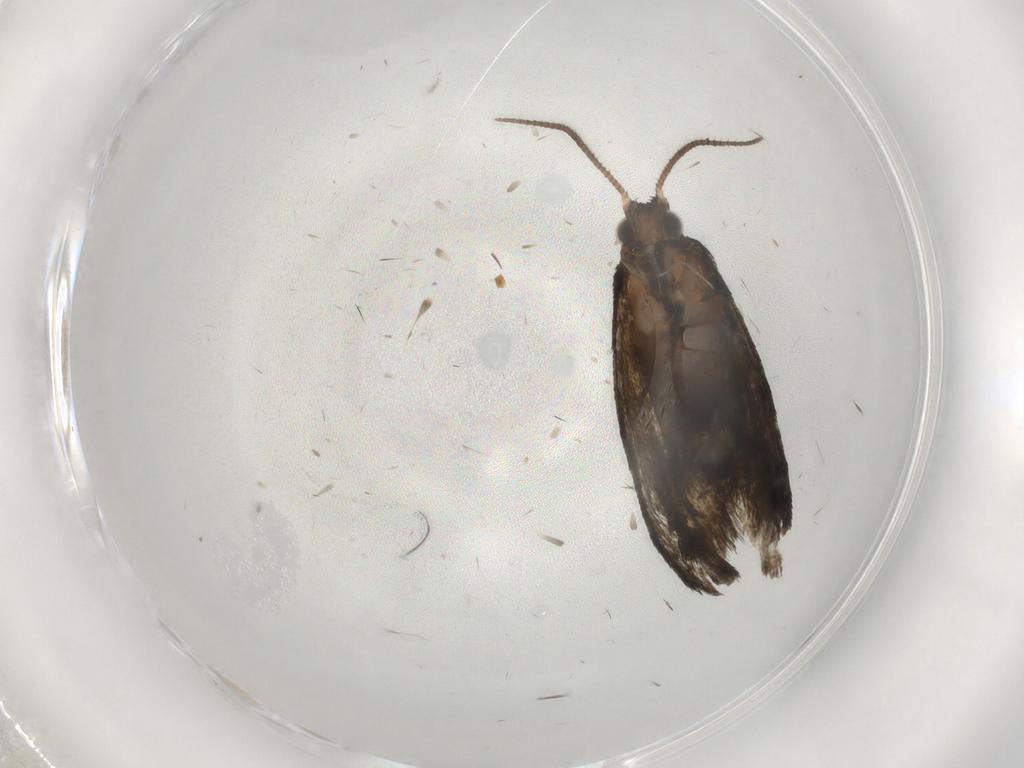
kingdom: Animalia
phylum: Arthropoda
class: Insecta
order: Lepidoptera
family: Tortricidae
